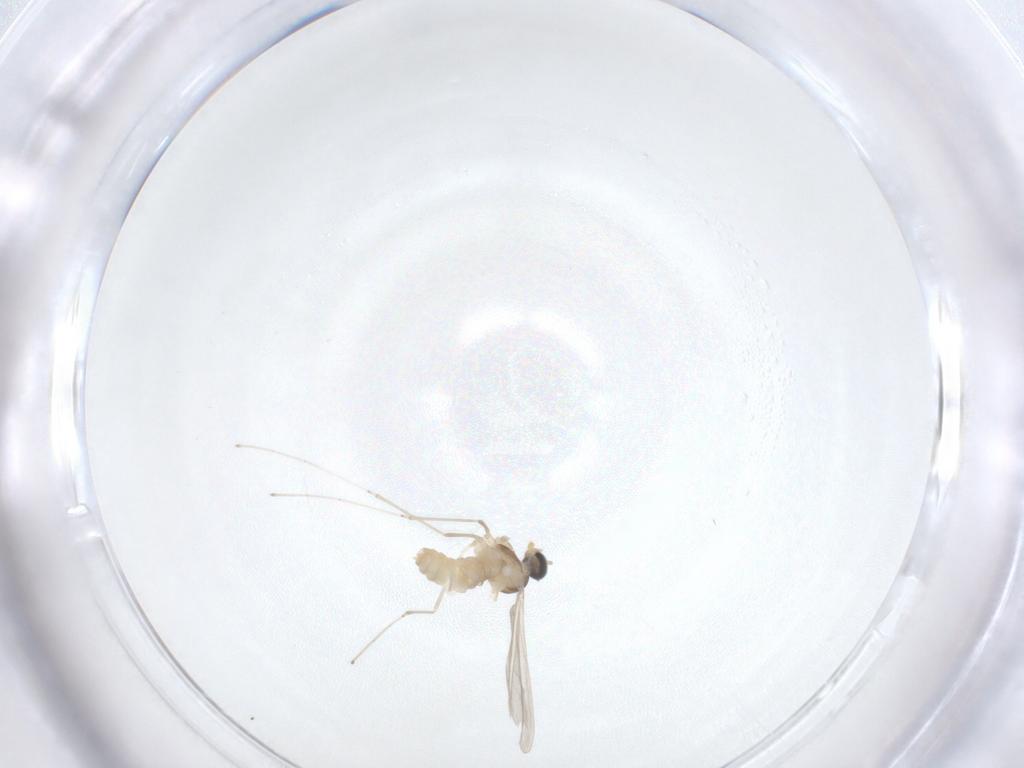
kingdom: Animalia
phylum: Arthropoda
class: Insecta
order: Diptera
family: Cecidomyiidae
